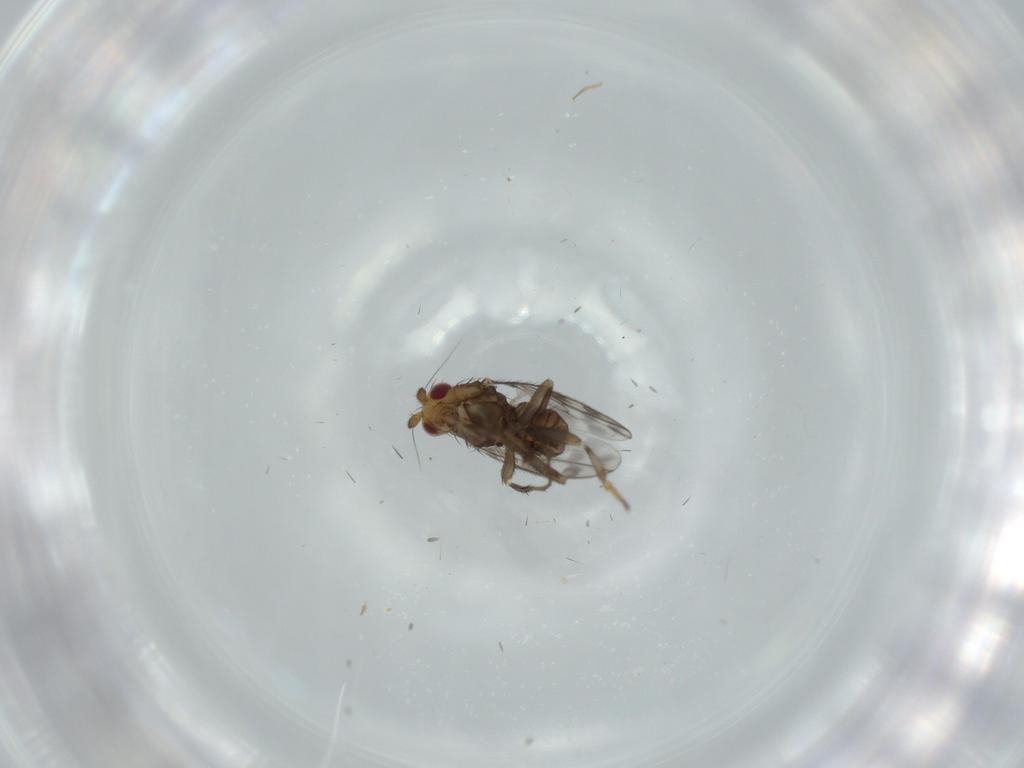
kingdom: Animalia
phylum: Arthropoda
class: Insecta
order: Diptera
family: Sphaeroceridae
